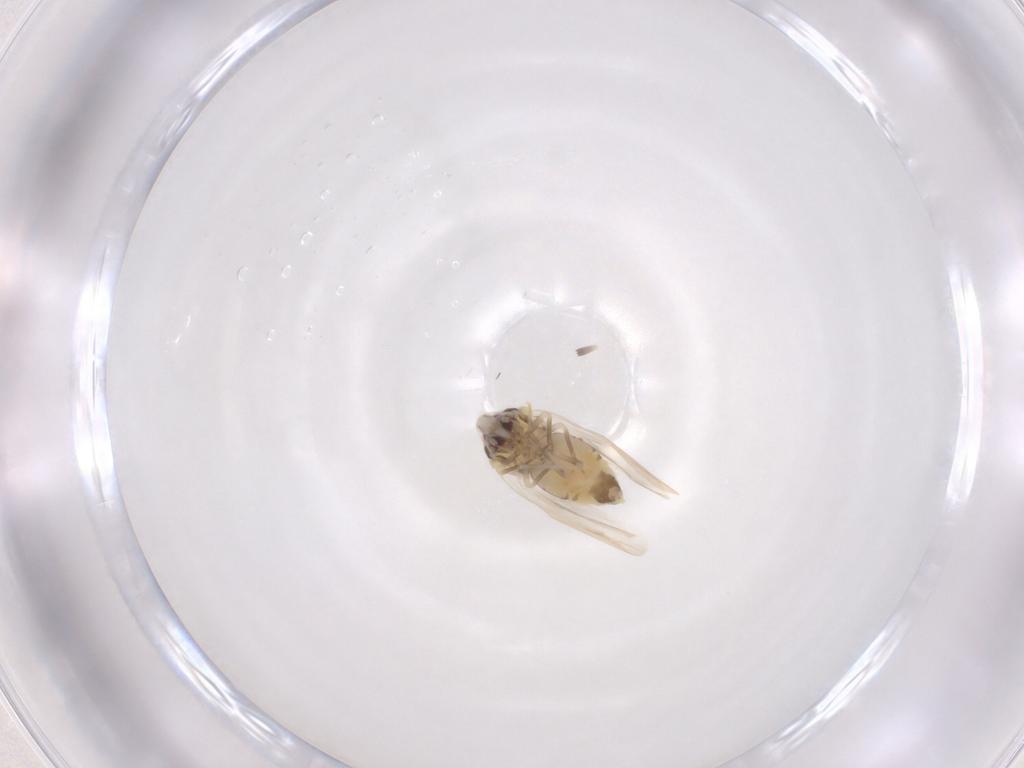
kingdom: Animalia
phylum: Arthropoda
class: Insecta
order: Hemiptera
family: Aleyrodidae
